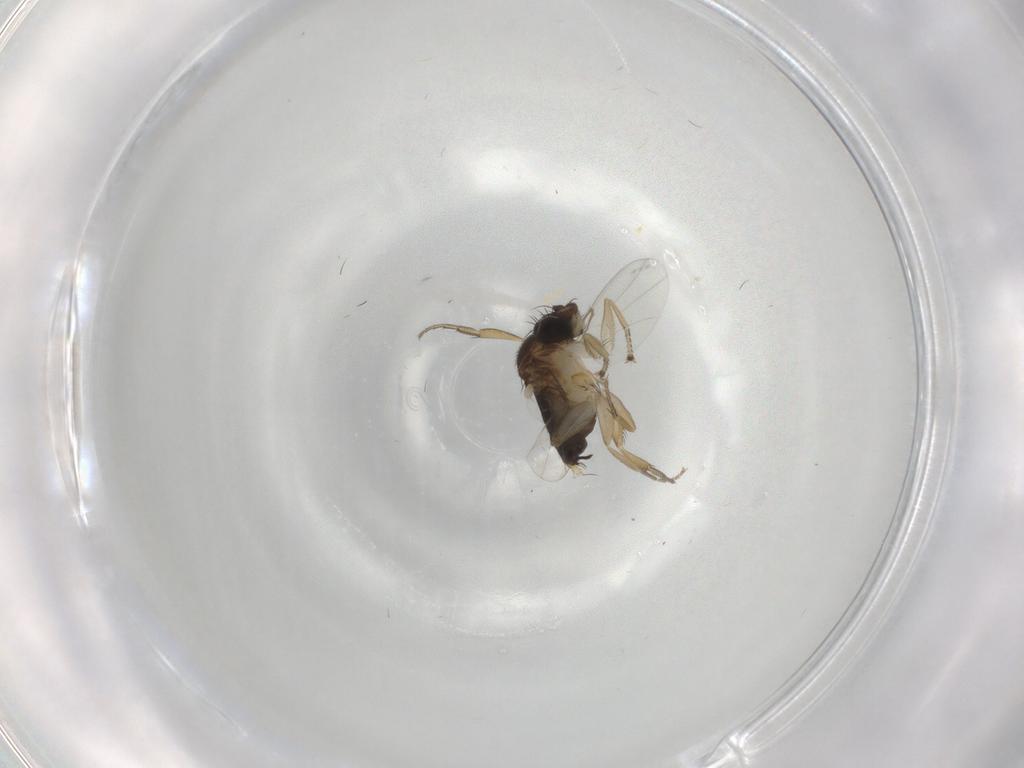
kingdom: Animalia
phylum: Arthropoda
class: Insecta
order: Diptera
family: Phoridae
